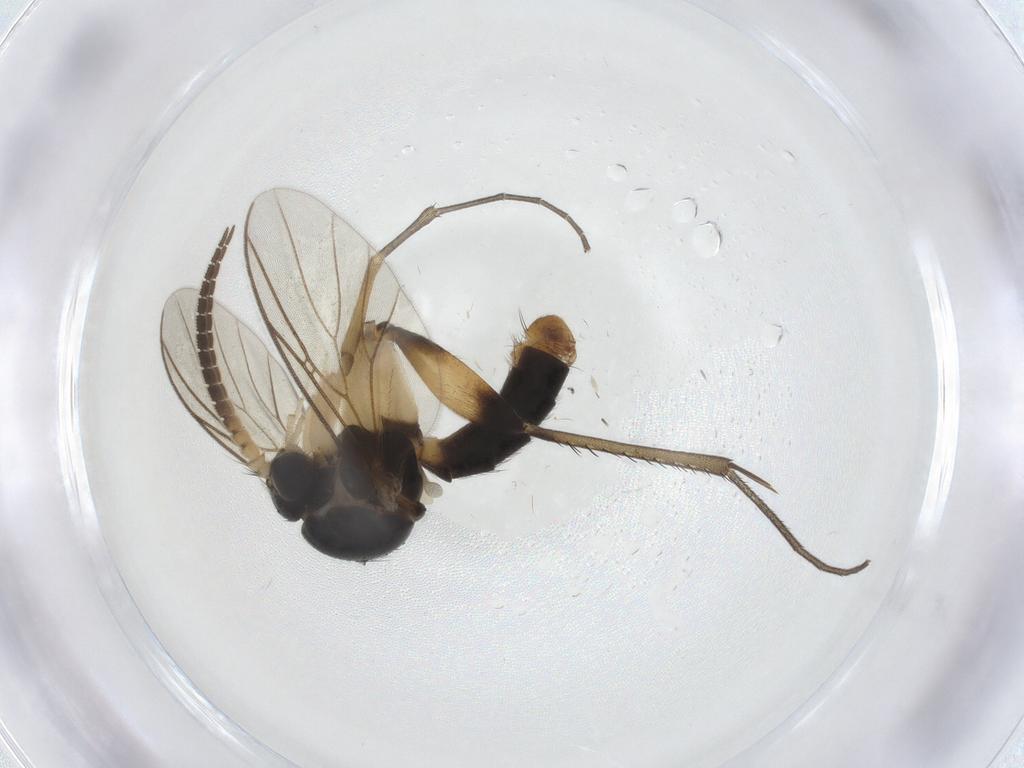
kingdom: Animalia
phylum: Arthropoda
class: Insecta
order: Diptera
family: Psychodidae
